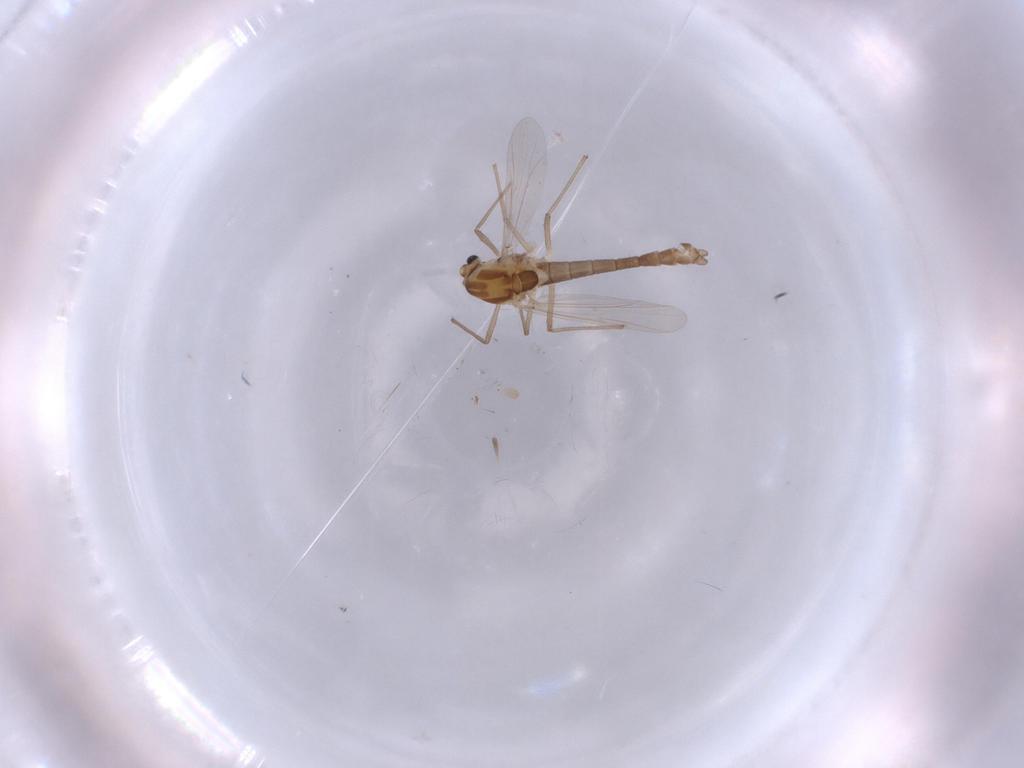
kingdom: Animalia
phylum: Arthropoda
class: Insecta
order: Diptera
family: Chironomidae
